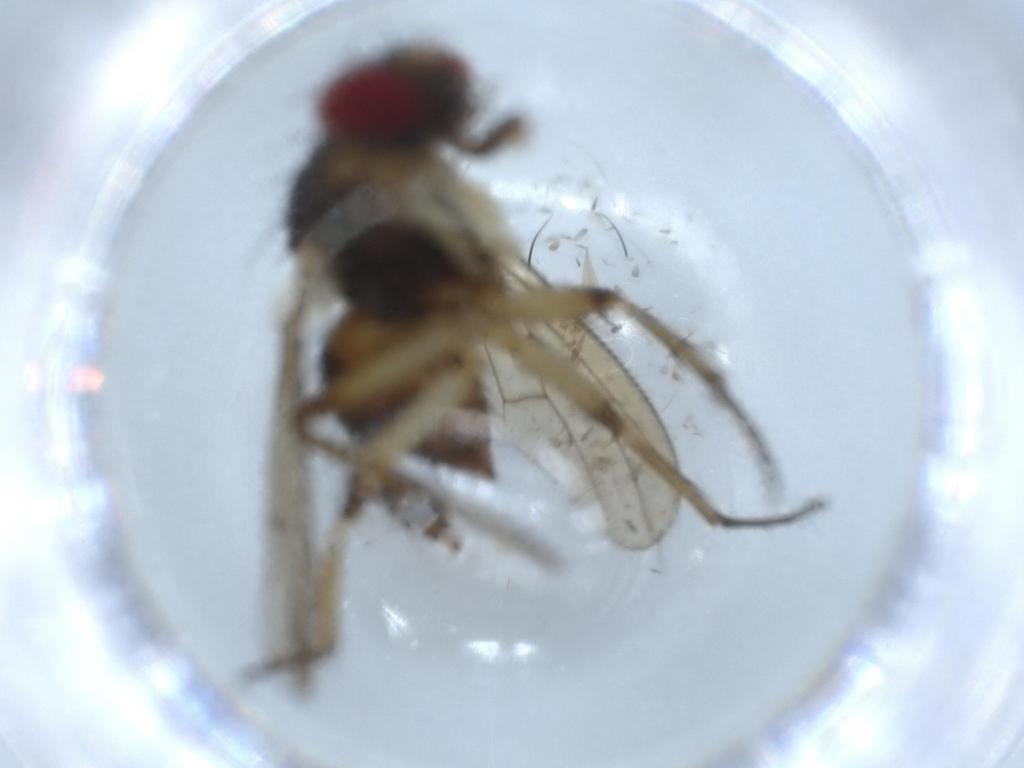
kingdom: Animalia
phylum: Arthropoda
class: Insecta
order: Diptera
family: Muscidae
